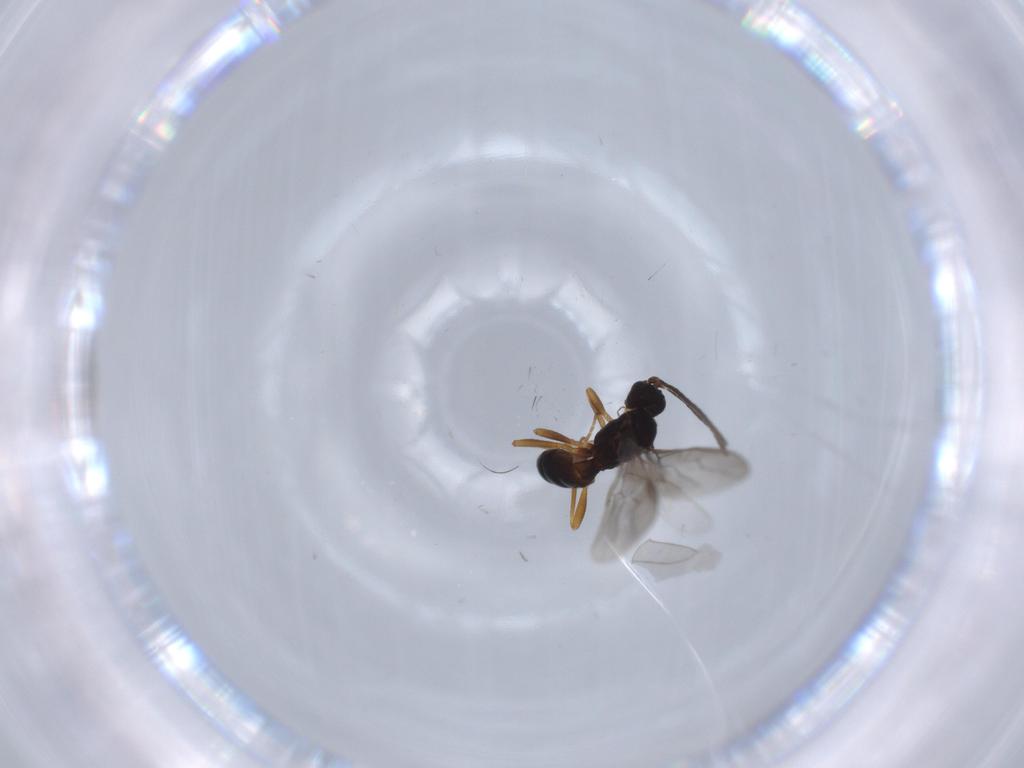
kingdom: Animalia
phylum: Arthropoda
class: Insecta
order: Hymenoptera
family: Braconidae
